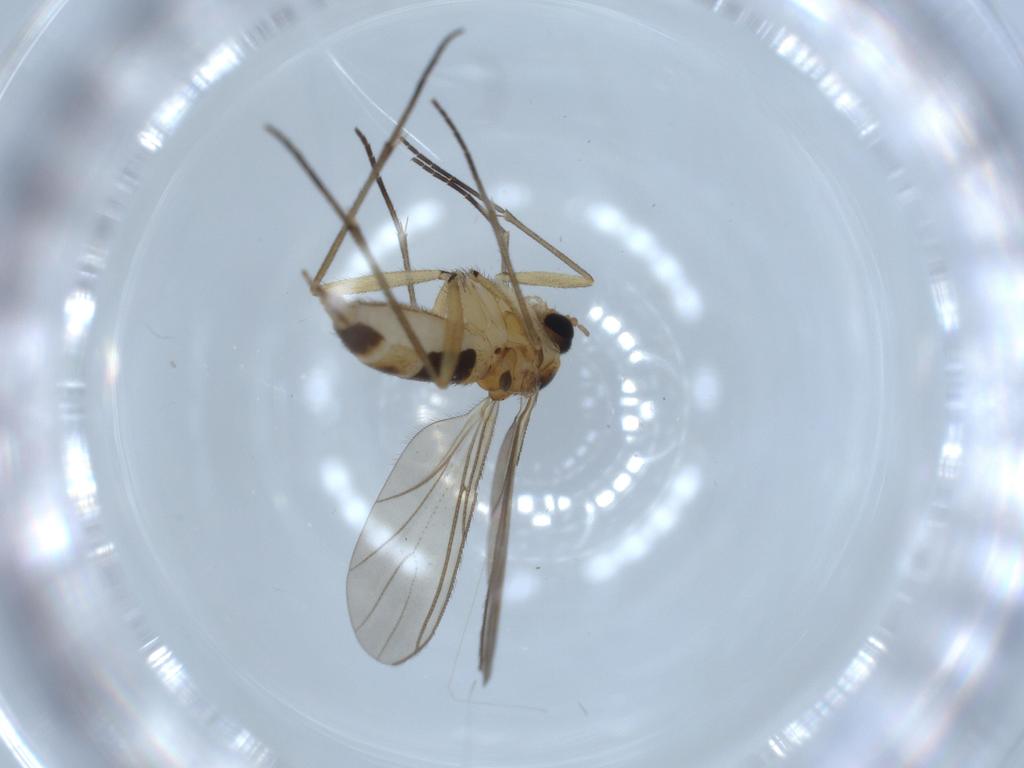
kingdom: Animalia
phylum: Arthropoda
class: Insecta
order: Diptera
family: Sciaridae
